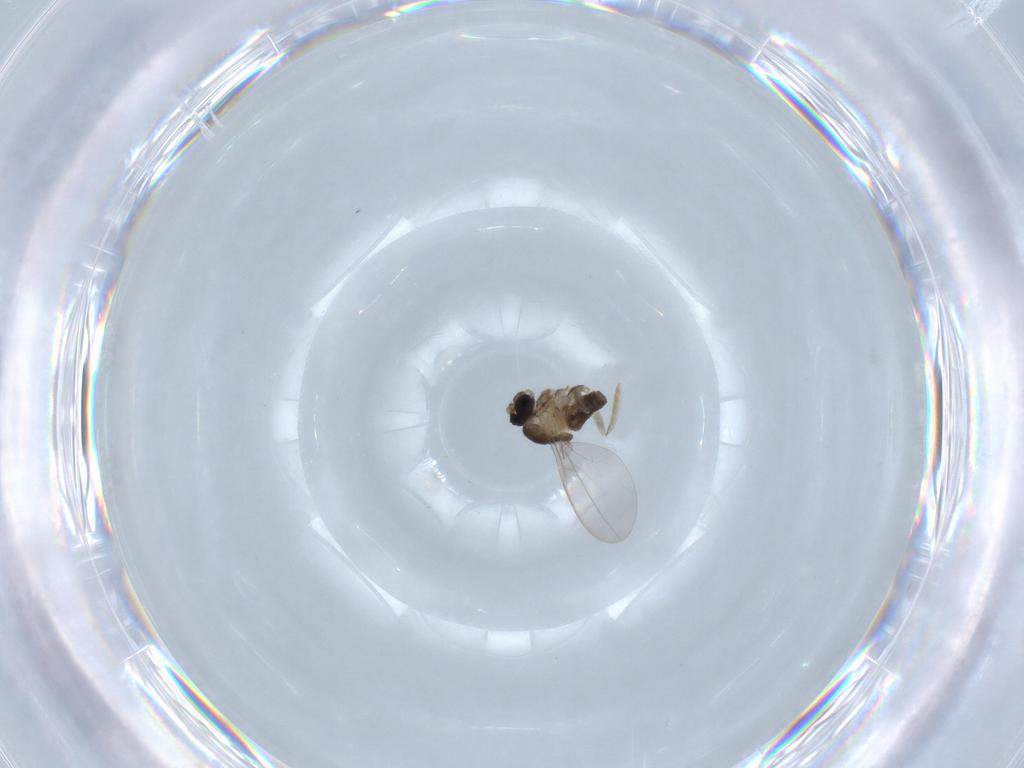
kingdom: Animalia
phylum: Arthropoda
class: Insecta
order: Diptera
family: Cecidomyiidae
